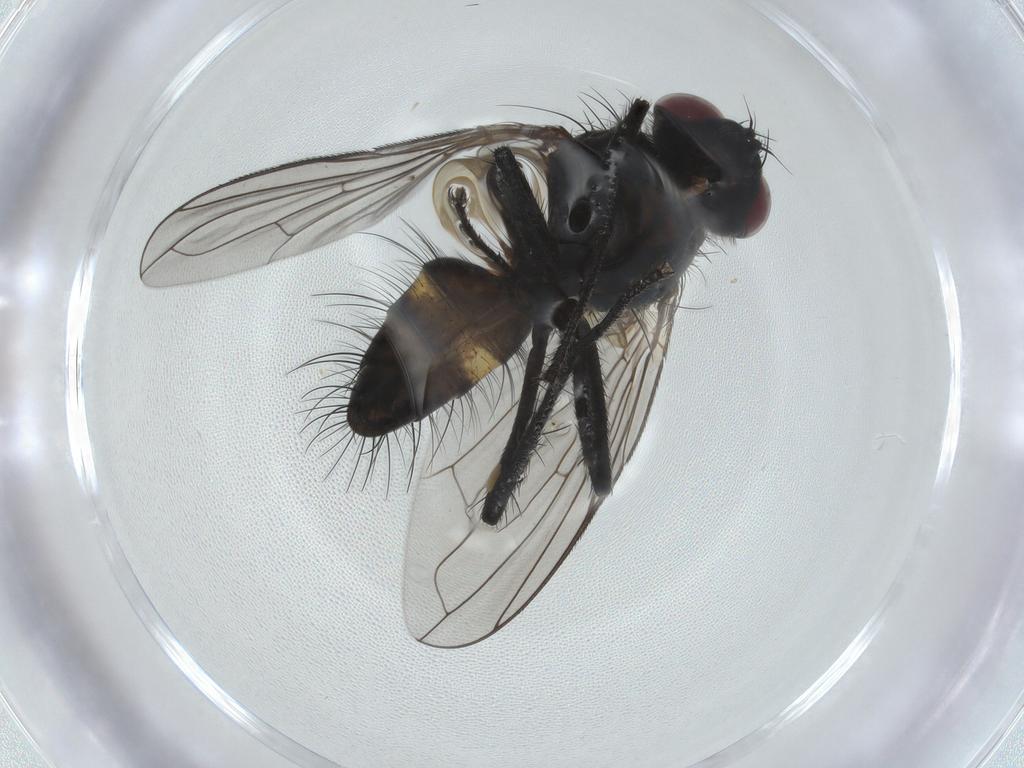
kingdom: Animalia
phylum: Arthropoda
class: Insecta
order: Diptera
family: Tachinidae
